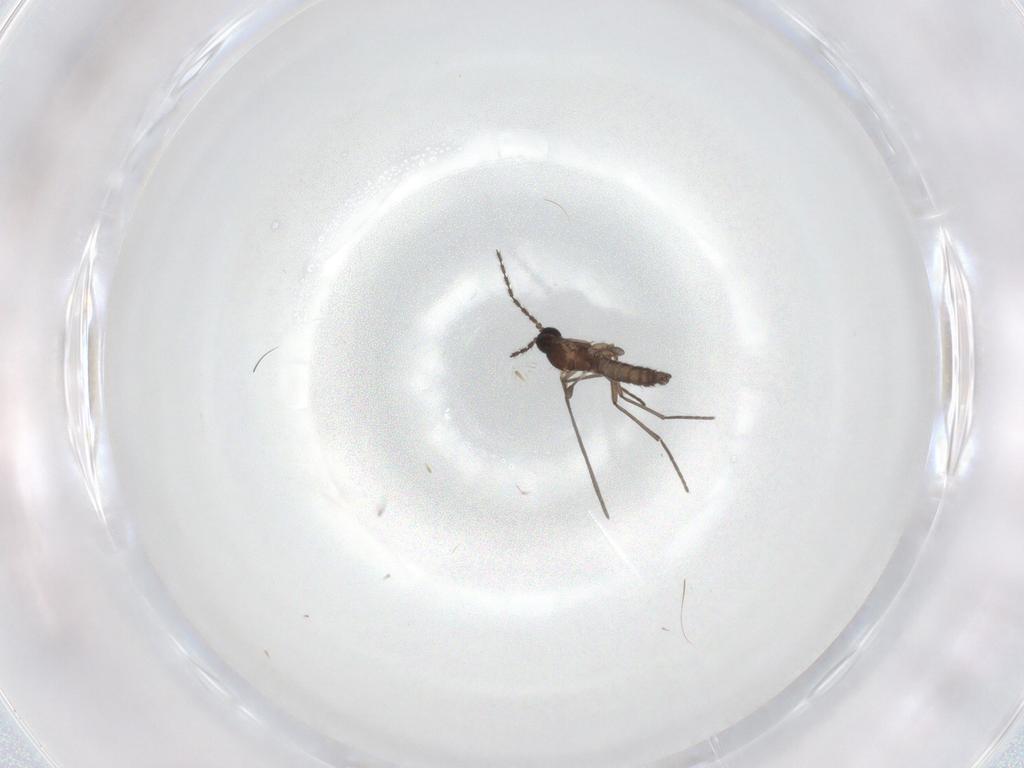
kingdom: Animalia
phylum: Arthropoda
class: Insecta
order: Diptera
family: Sciaridae
